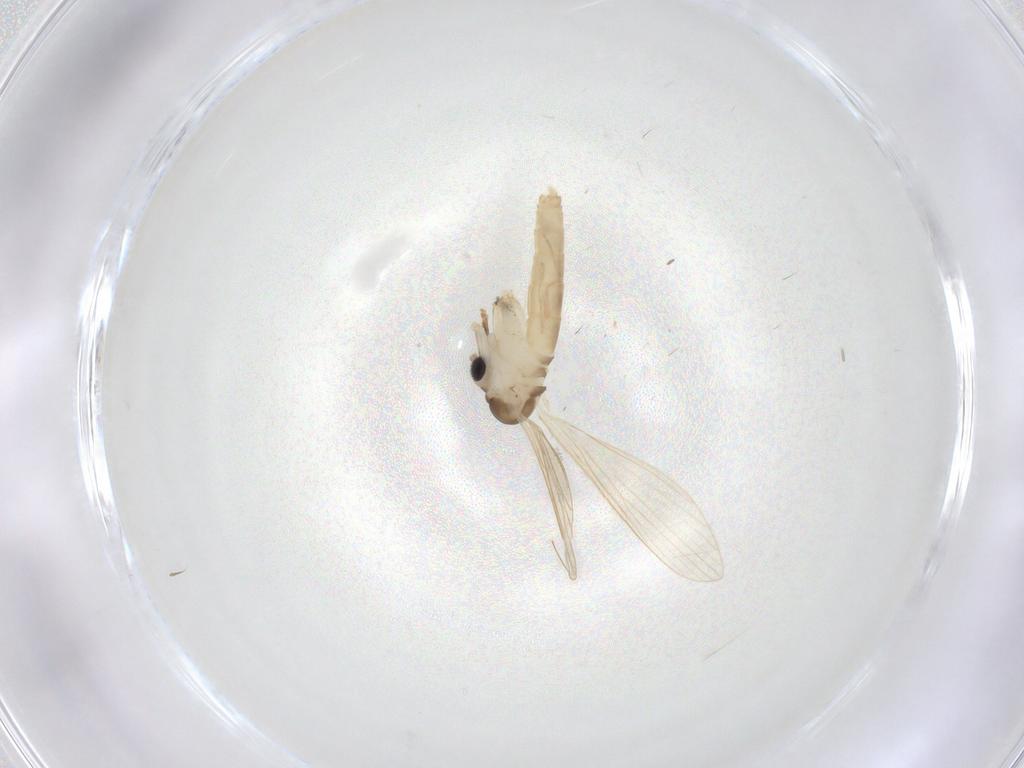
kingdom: Animalia
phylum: Arthropoda
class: Insecta
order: Diptera
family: Psychodidae
